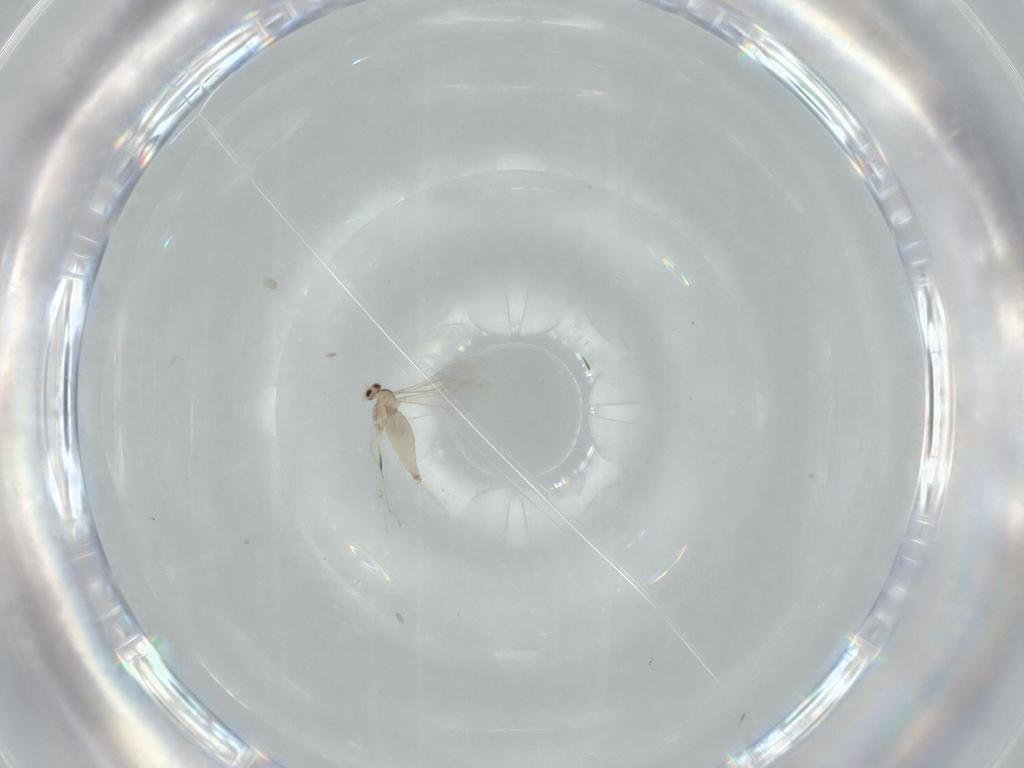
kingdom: Animalia
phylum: Arthropoda
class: Insecta
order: Diptera
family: Cecidomyiidae
